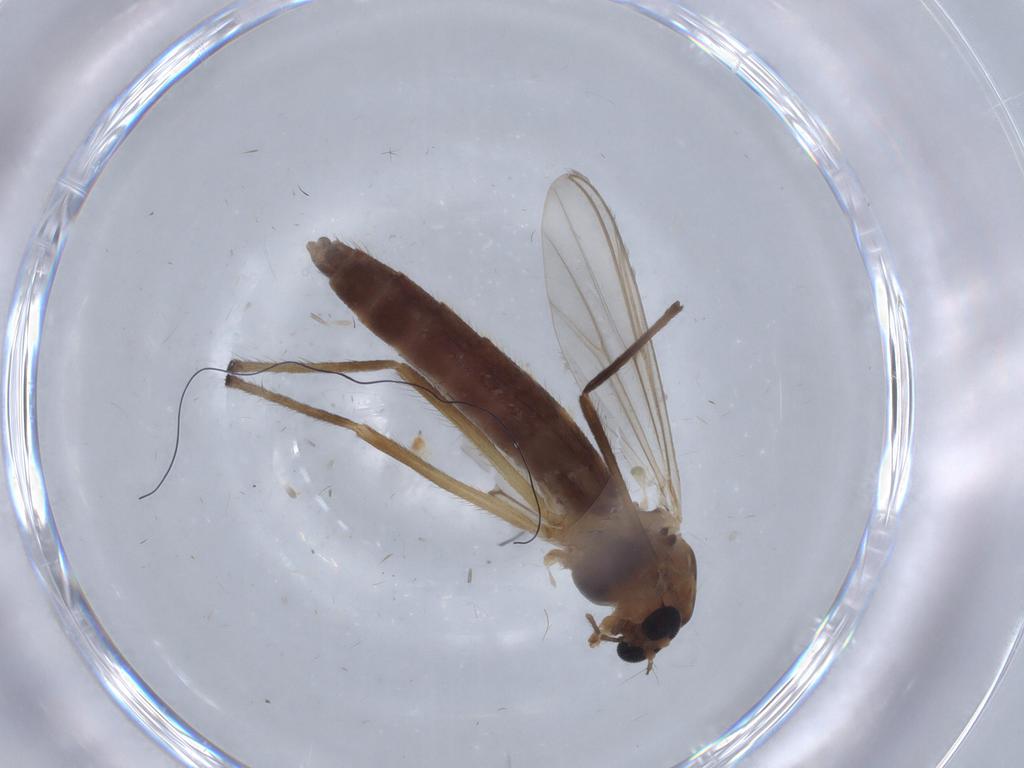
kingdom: Animalia
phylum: Arthropoda
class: Insecta
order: Diptera
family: Chironomidae
